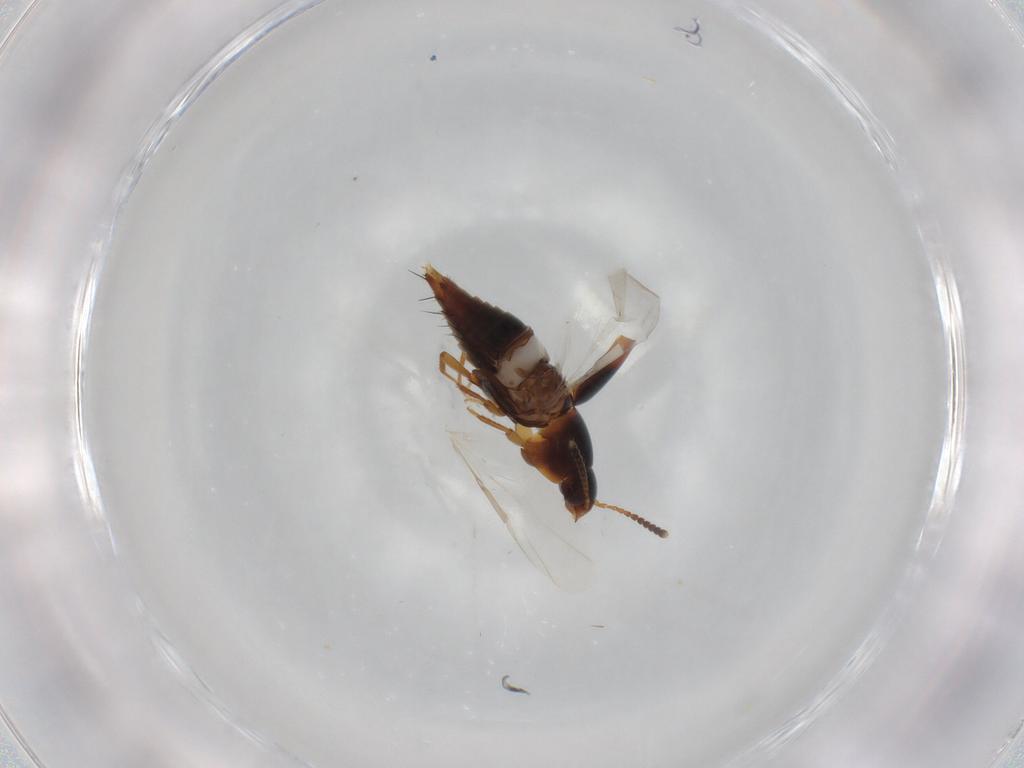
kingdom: Animalia
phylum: Arthropoda
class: Insecta
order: Coleoptera
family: Staphylinidae
